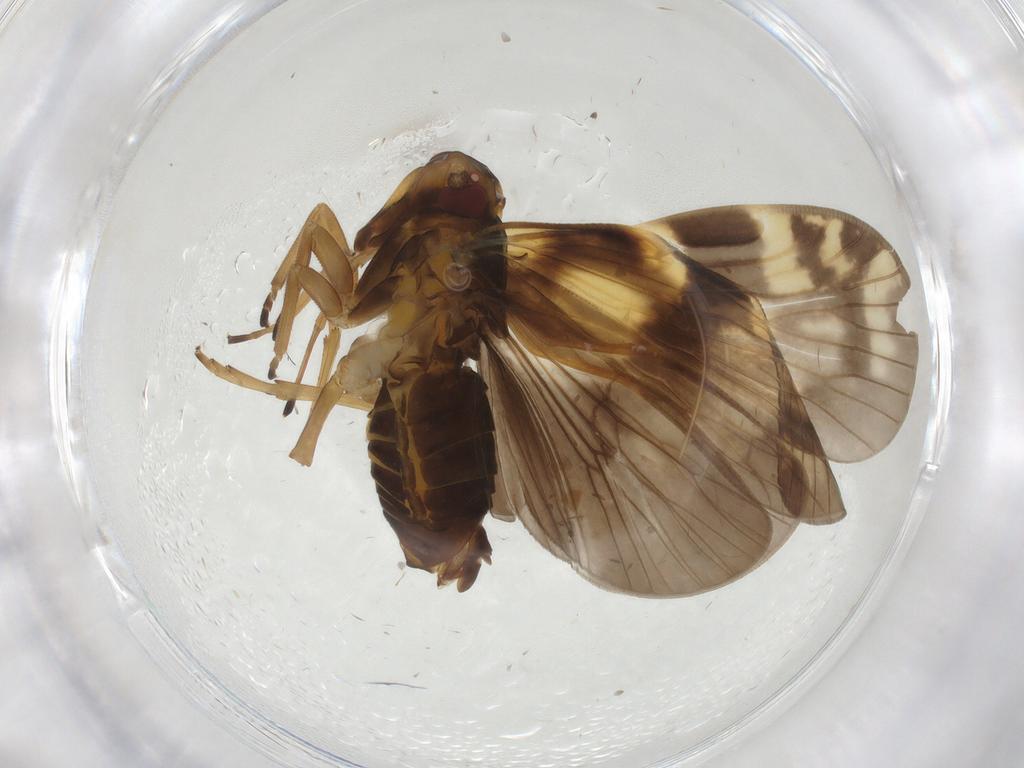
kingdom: Animalia
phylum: Arthropoda
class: Insecta
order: Hemiptera
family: Cixiidae
